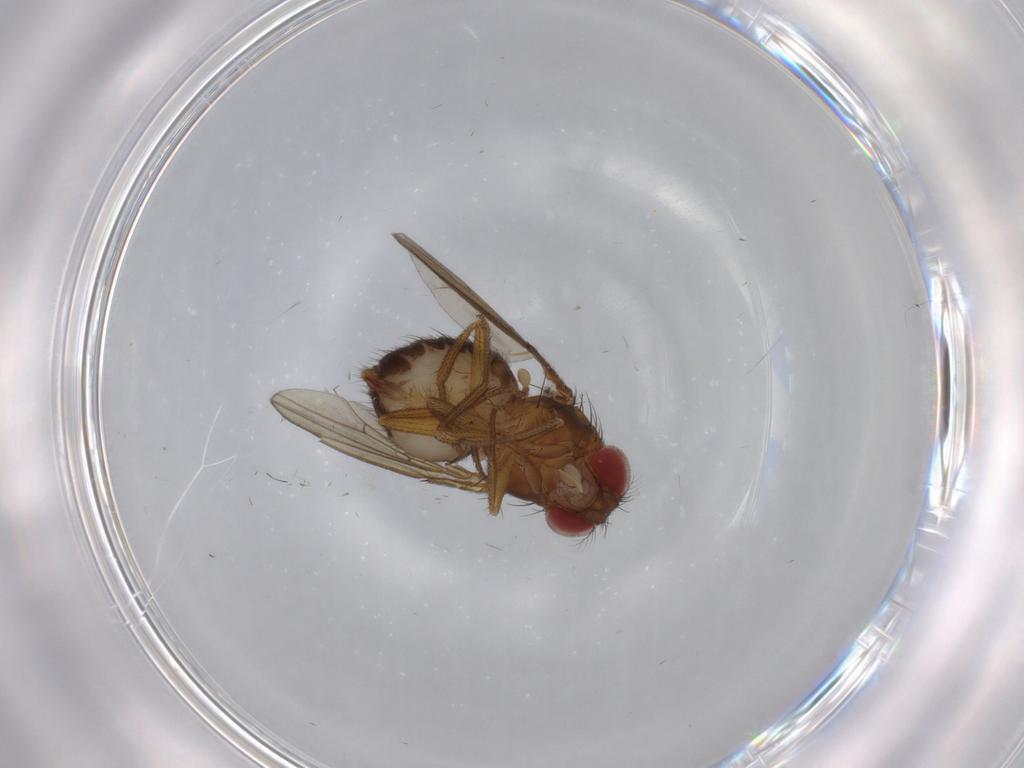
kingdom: Animalia
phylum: Arthropoda
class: Insecta
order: Diptera
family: Drosophilidae
